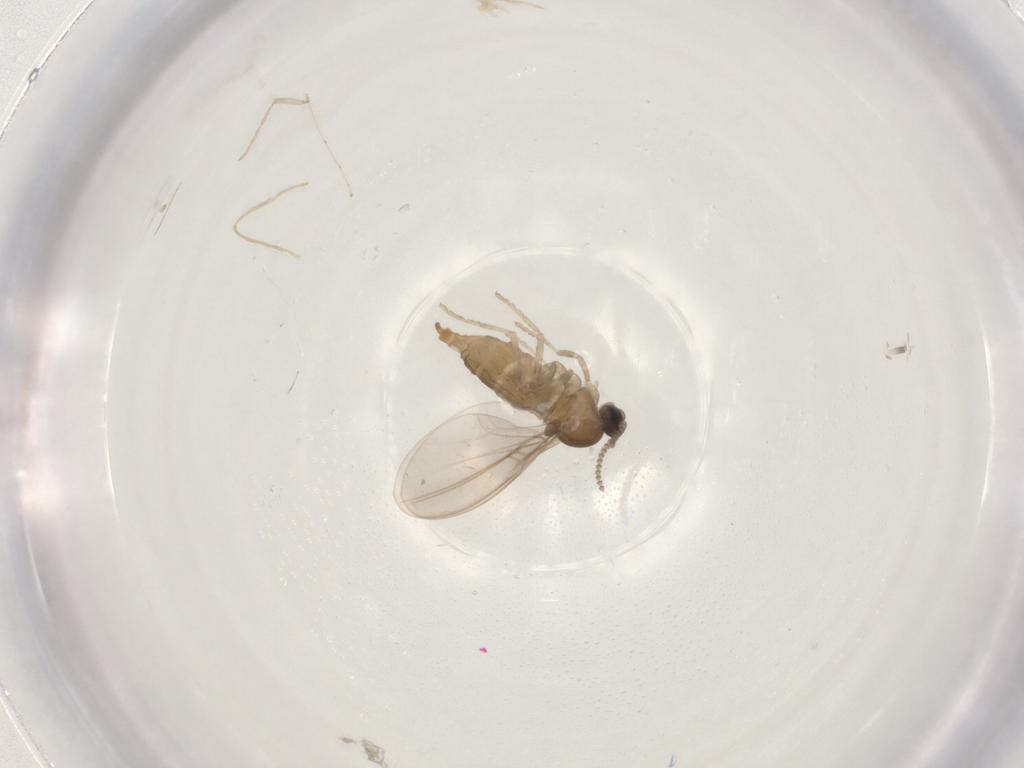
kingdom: Animalia
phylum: Arthropoda
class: Insecta
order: Diptera
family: Cecidomyiidae
